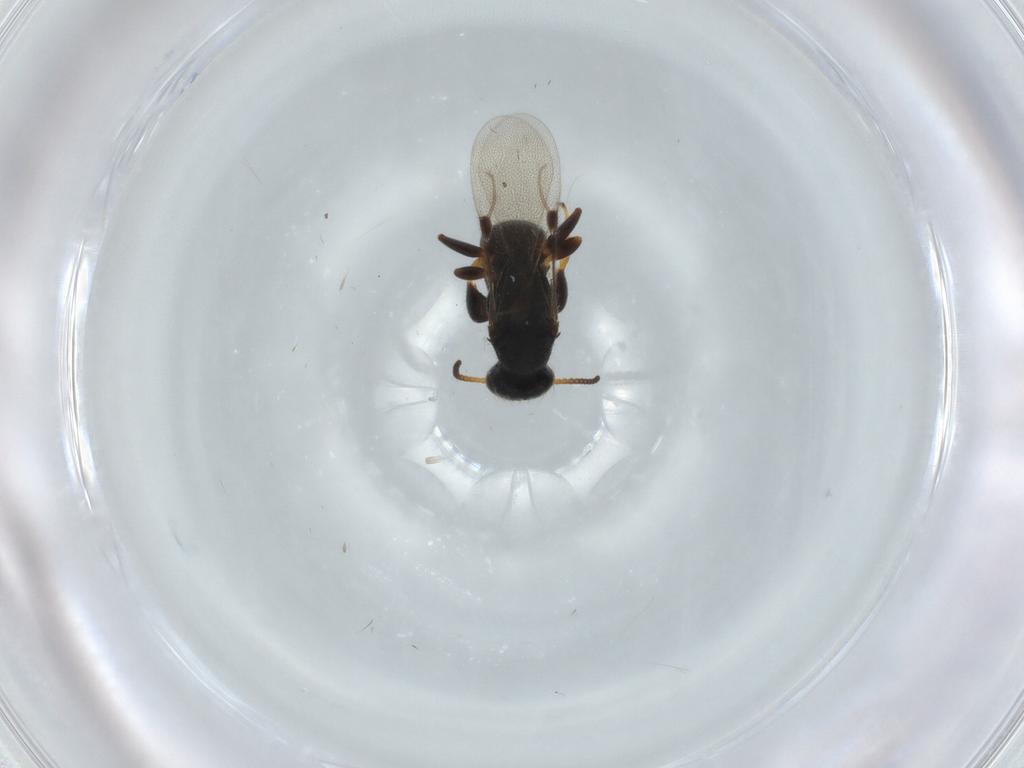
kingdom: Animalia
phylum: Arthropoda
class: Insecta
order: Hymenoptera
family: Bethylidae
